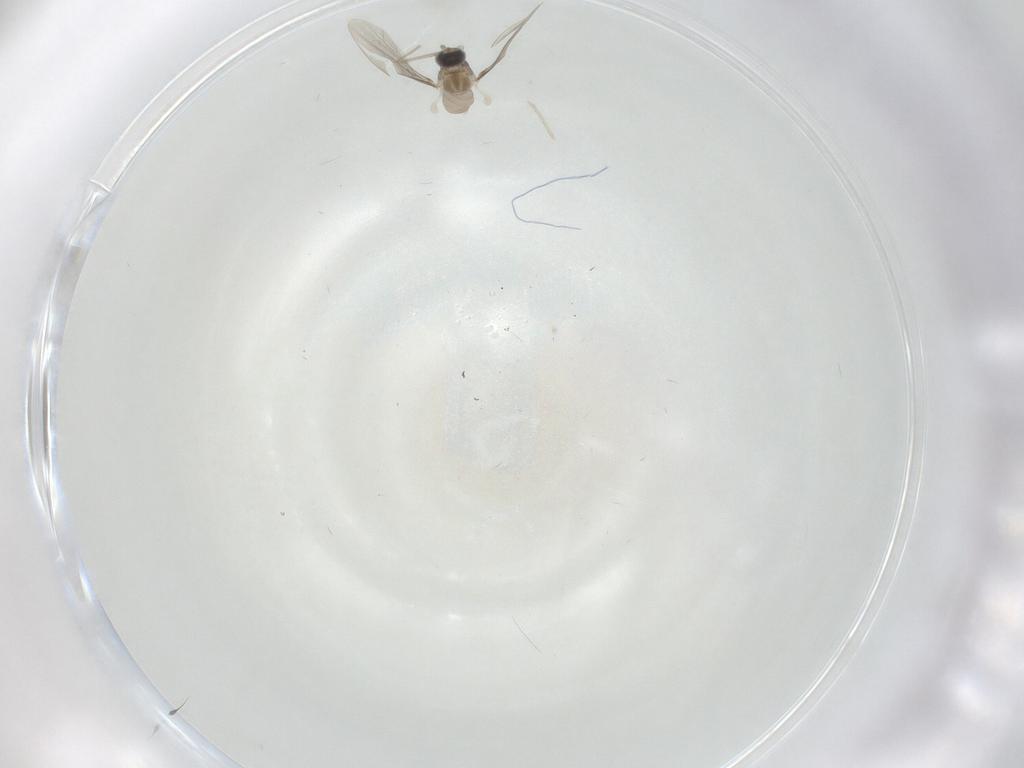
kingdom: Animalia
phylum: Arthropoda
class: Insecta
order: Diptera
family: Cecidomyiidae
